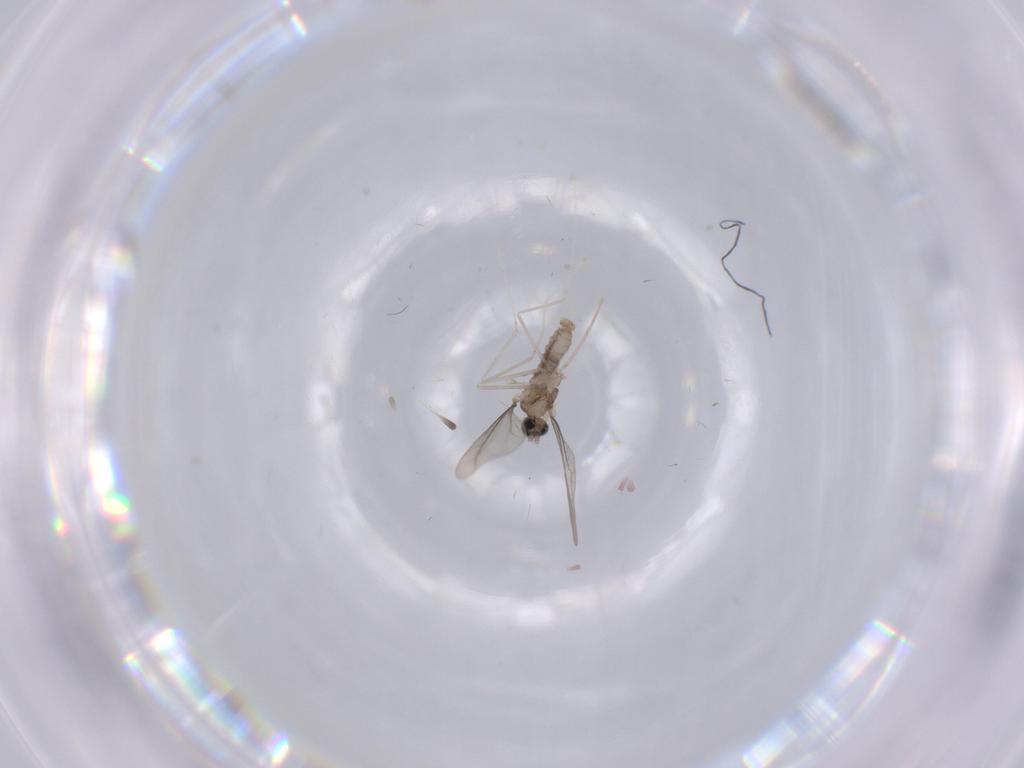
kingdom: Animalia
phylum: Arthropoda
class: Insecta
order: Diptera
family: Cecidomyiidae
